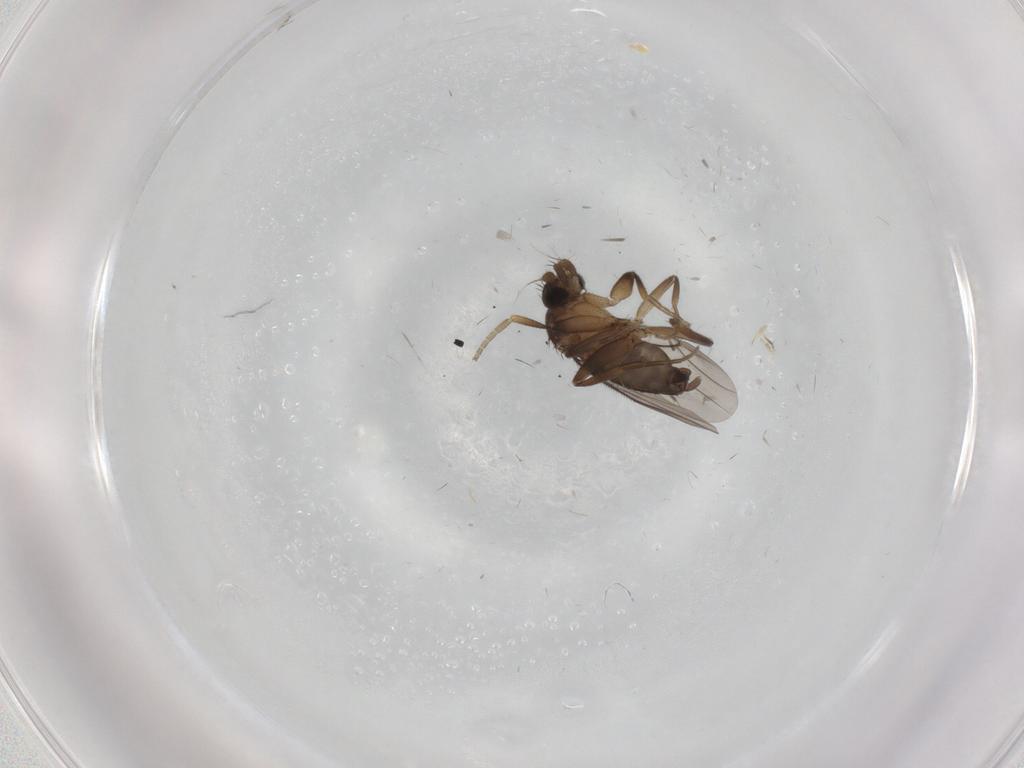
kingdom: Animalia
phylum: Arthropoda
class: Insecta
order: Diptera
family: Phoridae
